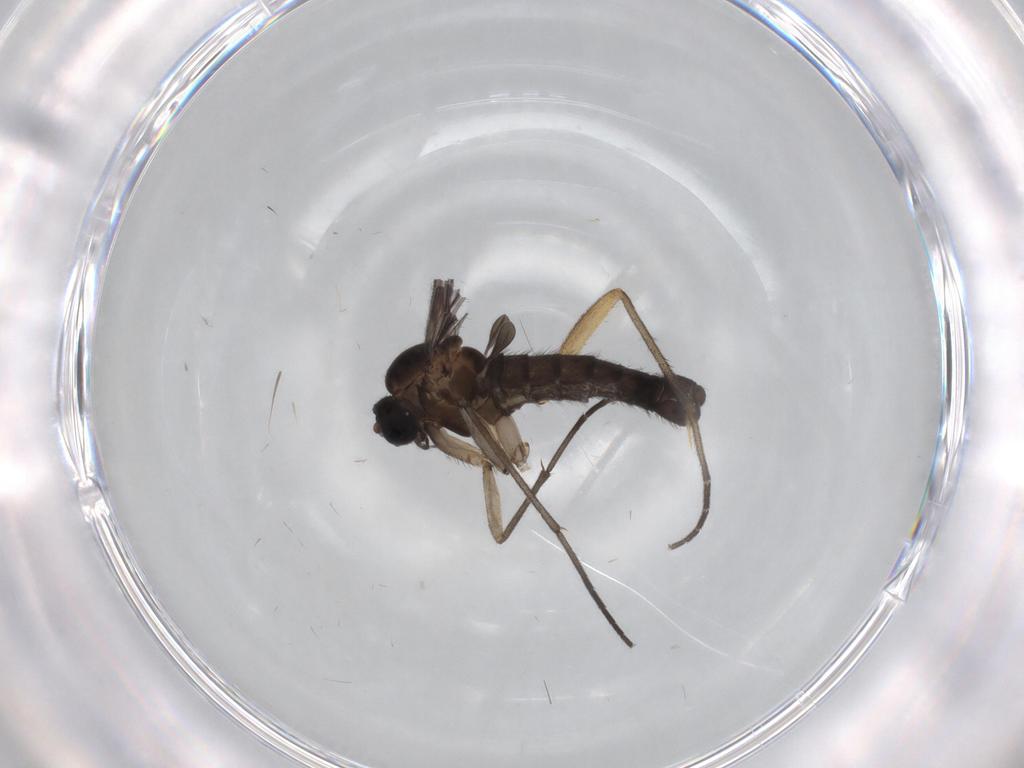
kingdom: Animalia
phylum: Arthropoda
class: Insecta
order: Diptera
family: Sciaridae
